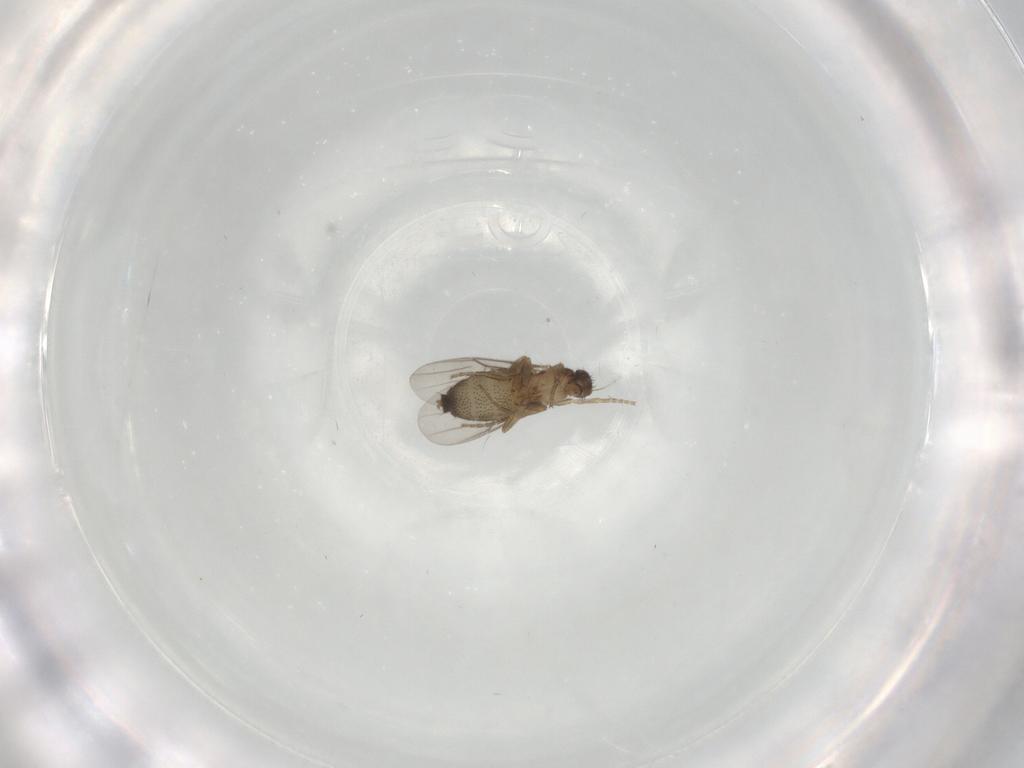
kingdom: Animalia
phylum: Arthropoda
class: Insecta
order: Diptera
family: Phoridae
